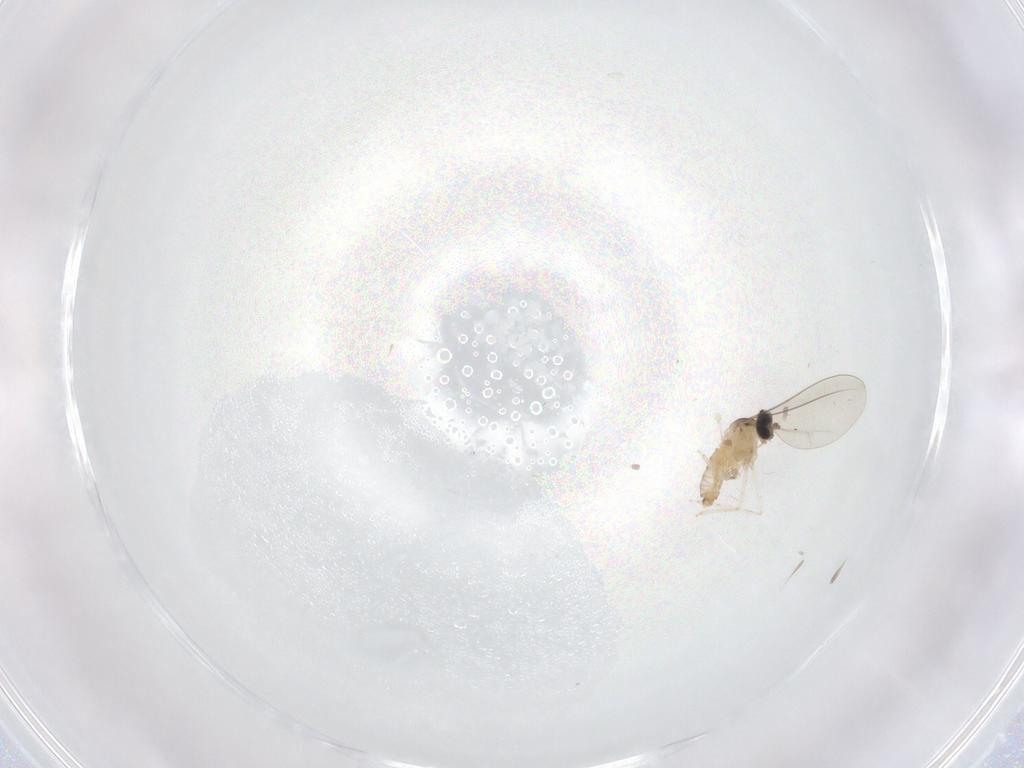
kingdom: Animalia
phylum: Arthropoda
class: Insecta
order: Diptera
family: Cecidomyiidae
